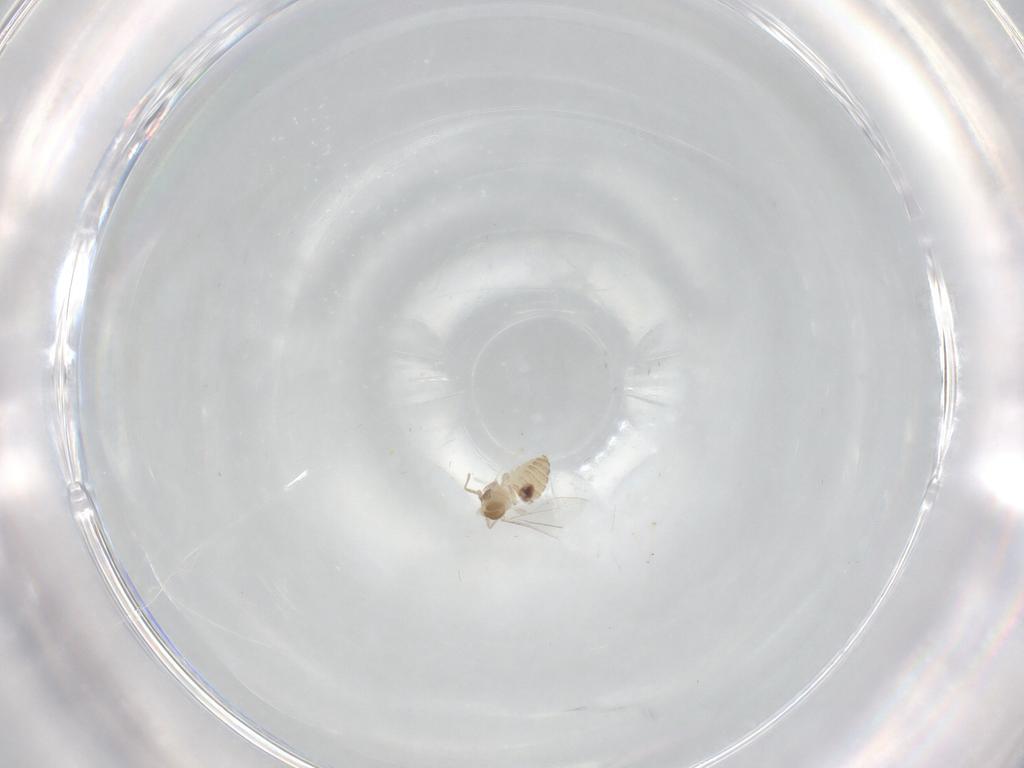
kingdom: Animalia
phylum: Arthropoda
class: Insecta
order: Diptera
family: Cecidomyiidae
